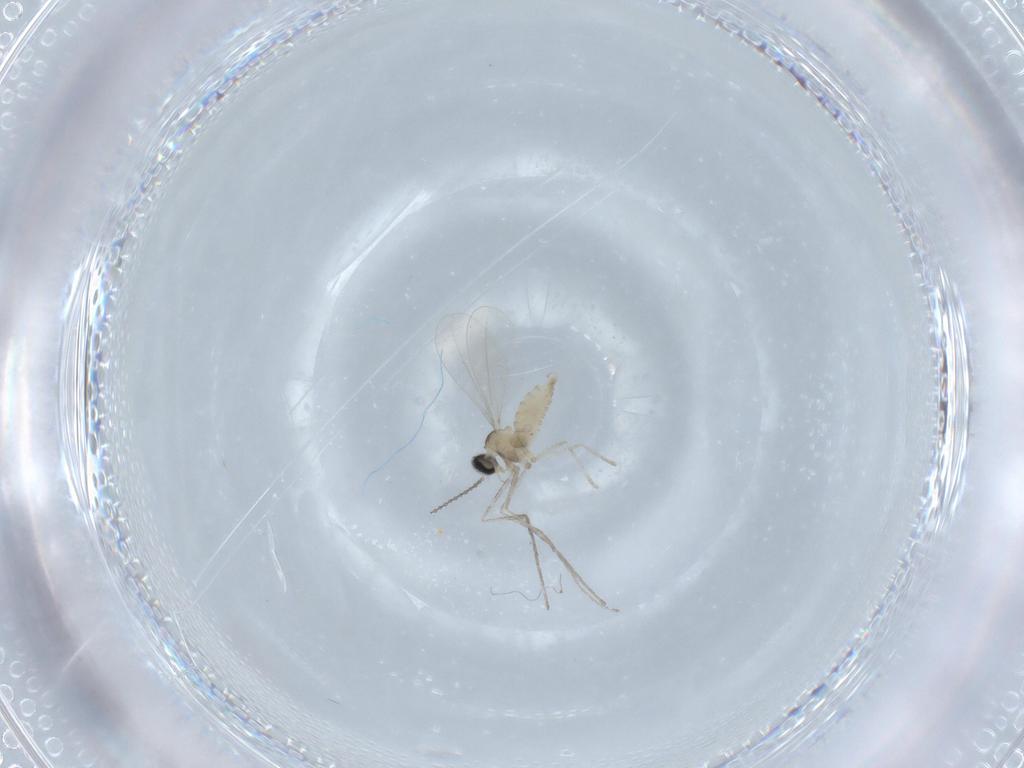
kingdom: Animalia
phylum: Arthropoda
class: Insecta
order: Diptera
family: Cecidomyiidae
